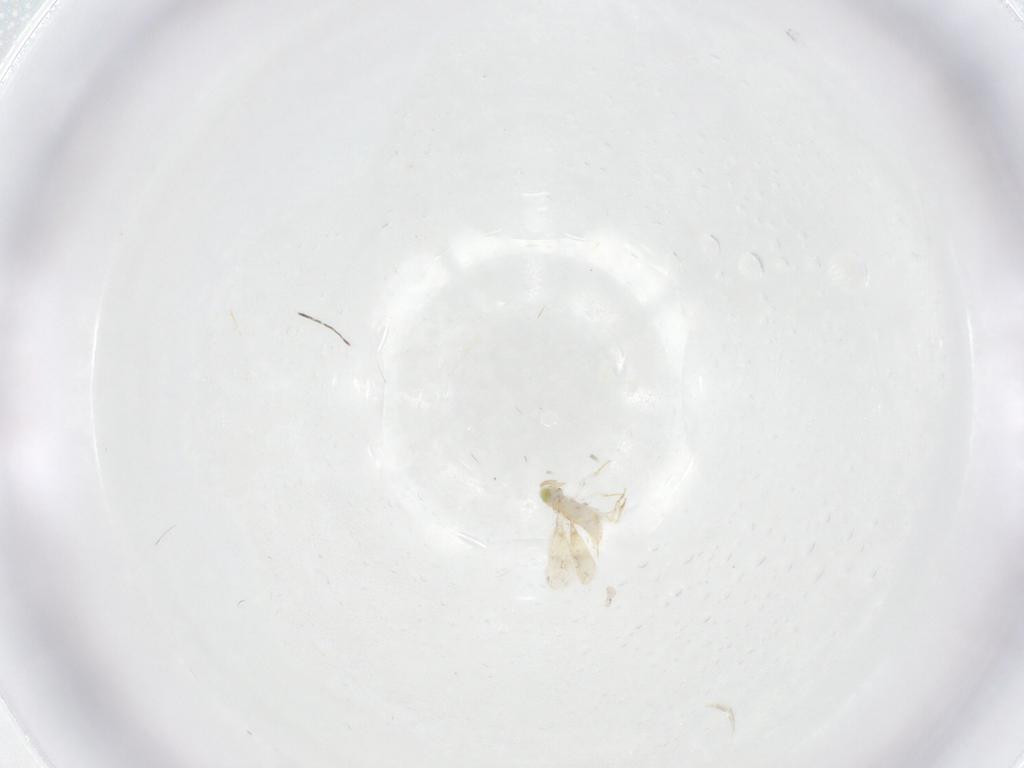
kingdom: Animalia
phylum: Arthropoda
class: Insecta
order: Hymenoptera
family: Aphelinidae
